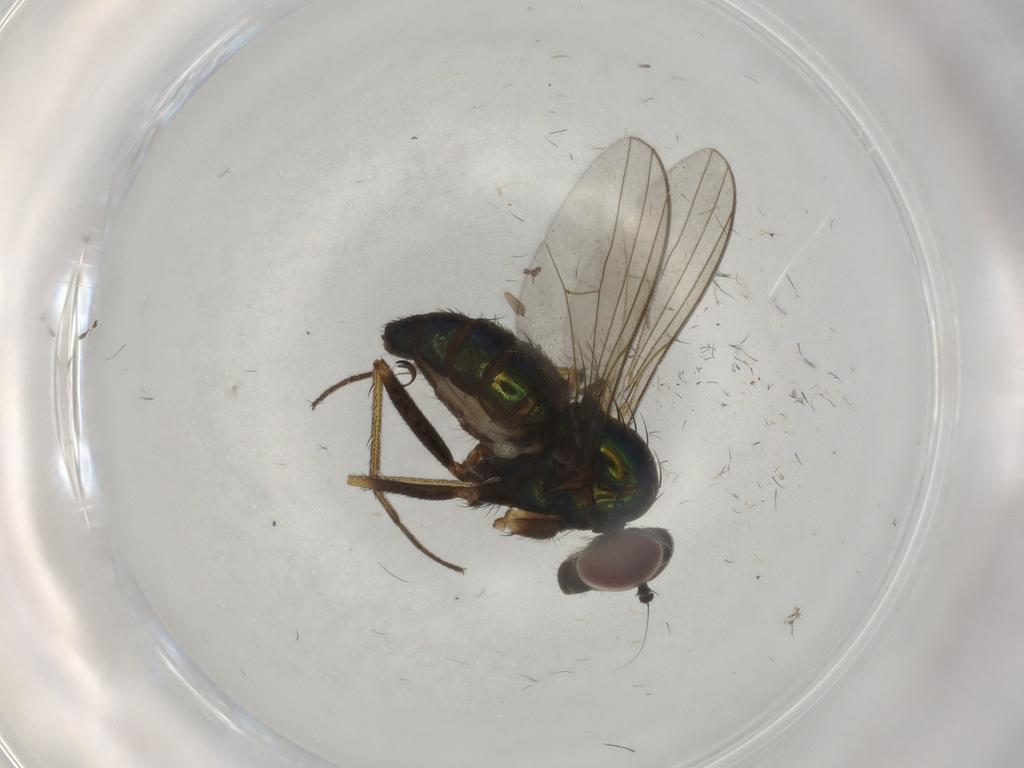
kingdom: Animalia
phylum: Arthropoda
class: Insecta
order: Diptera
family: Dolichopodidae
